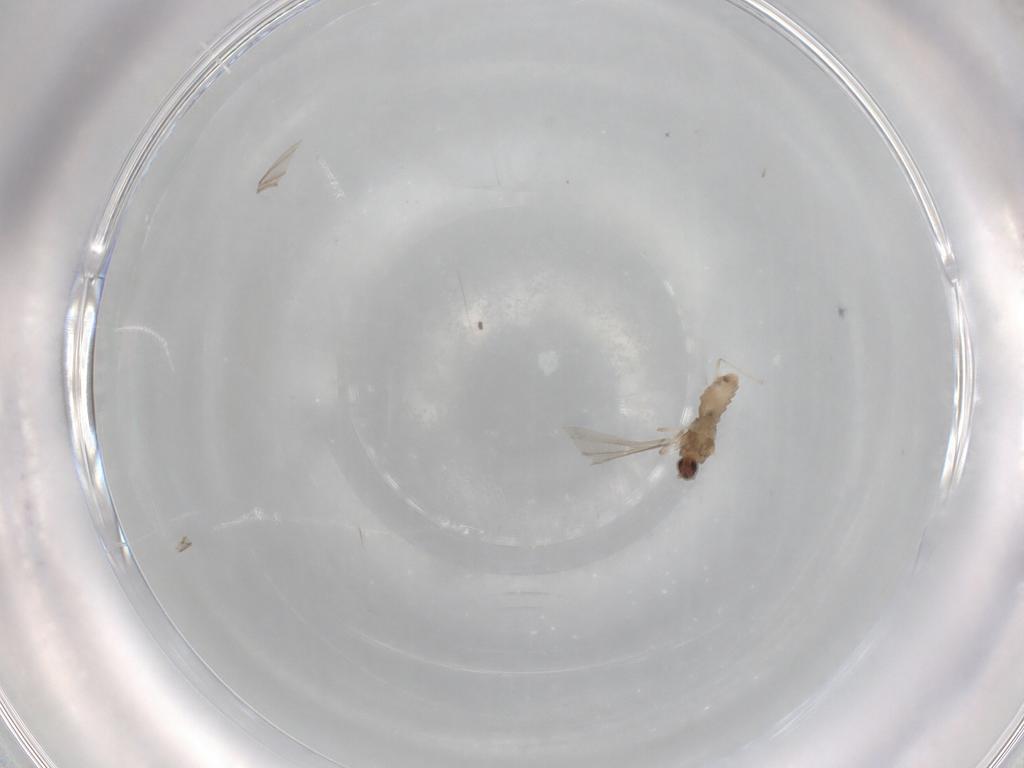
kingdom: Animalia
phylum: Arthropoda
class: Insecta
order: Diptera
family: Cecidomyiidae
